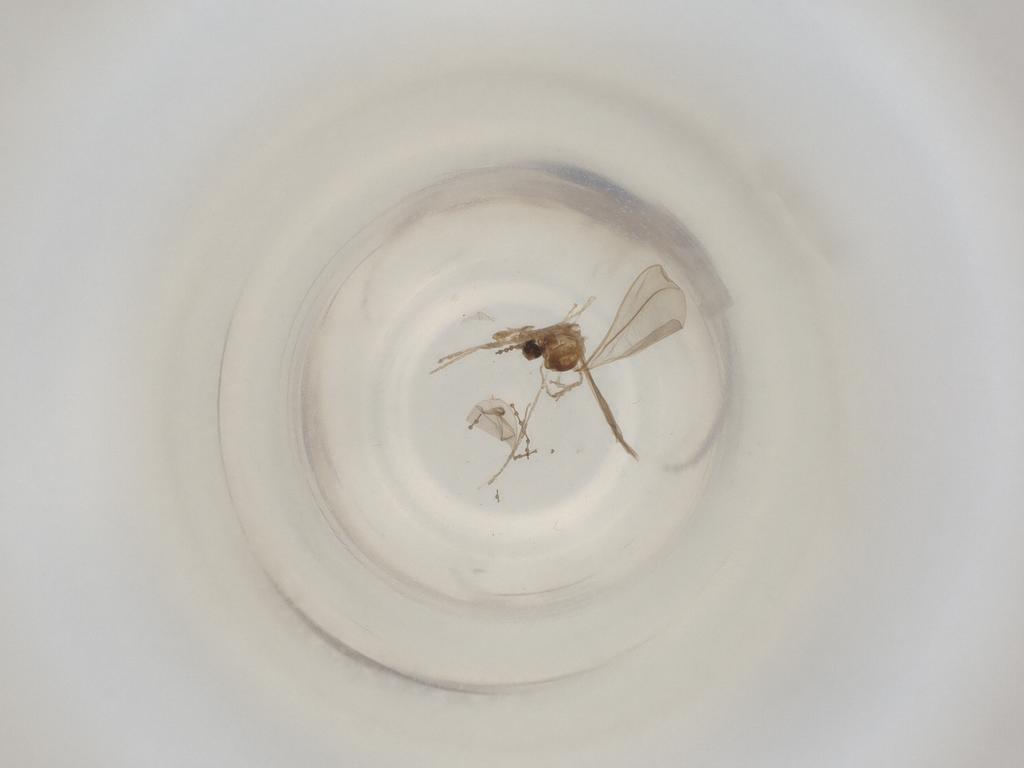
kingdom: Animalia
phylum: Arthropoda
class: Insecta
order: Diptera
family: Cecidomyiidae
